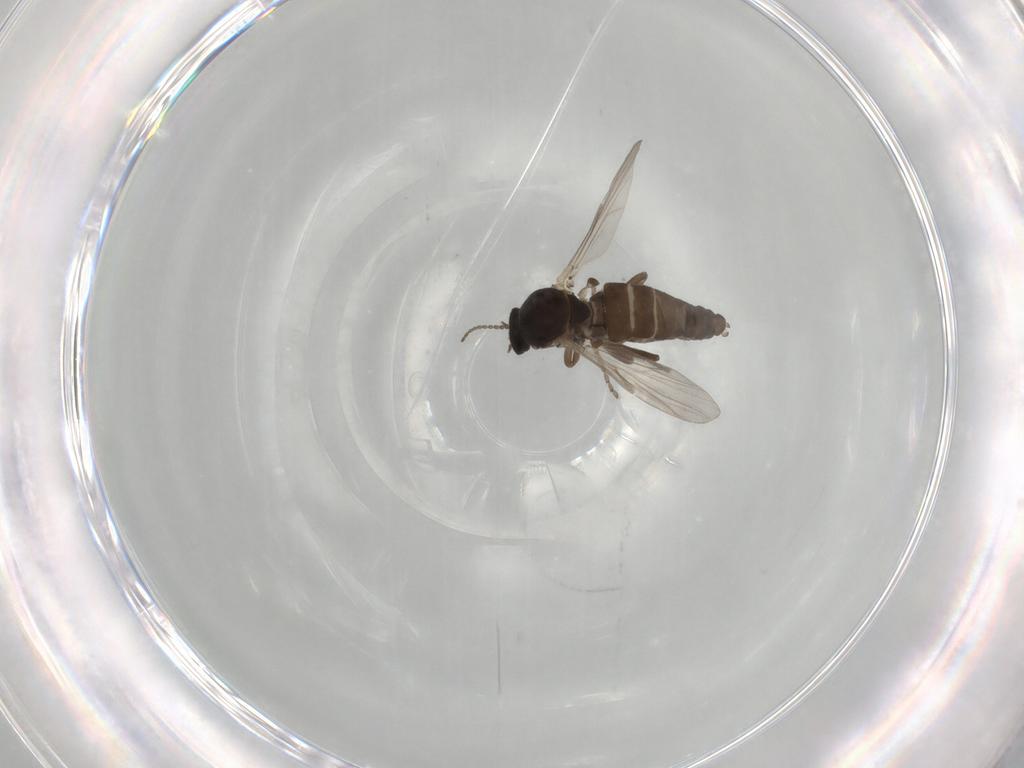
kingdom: Animalia
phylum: Arthropoda
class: Insecta
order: Diptera
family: Ceratopogonidae
